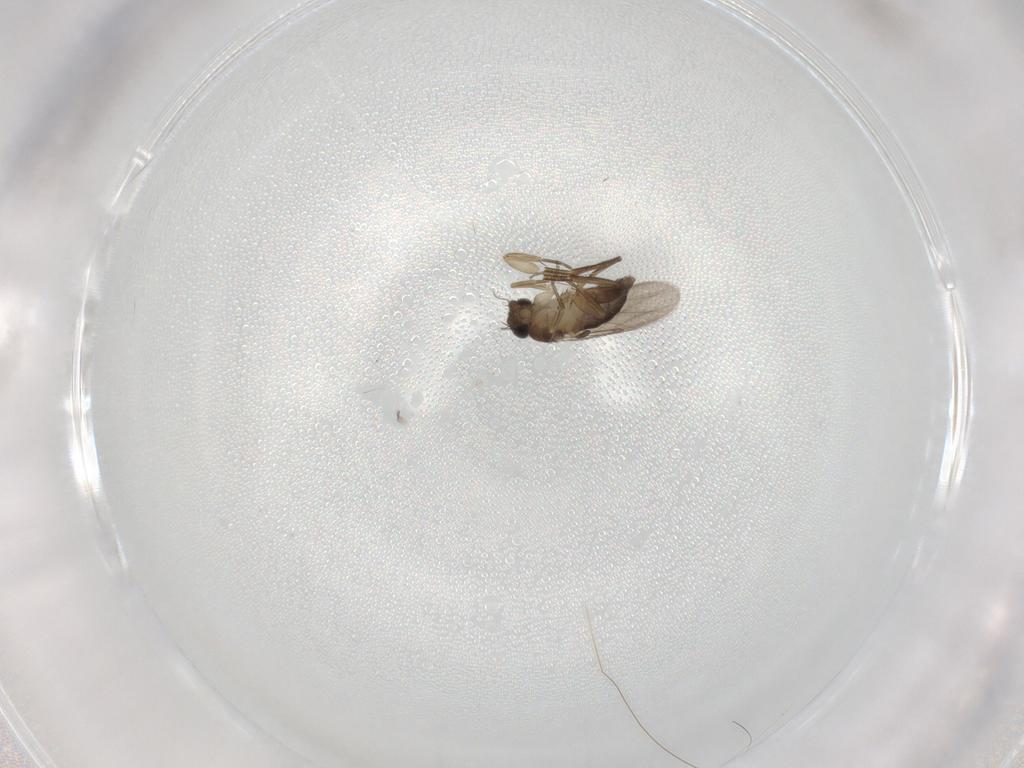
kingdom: Animalia
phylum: Arthropoda
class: Insecta
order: Diptera
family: Phoridae
